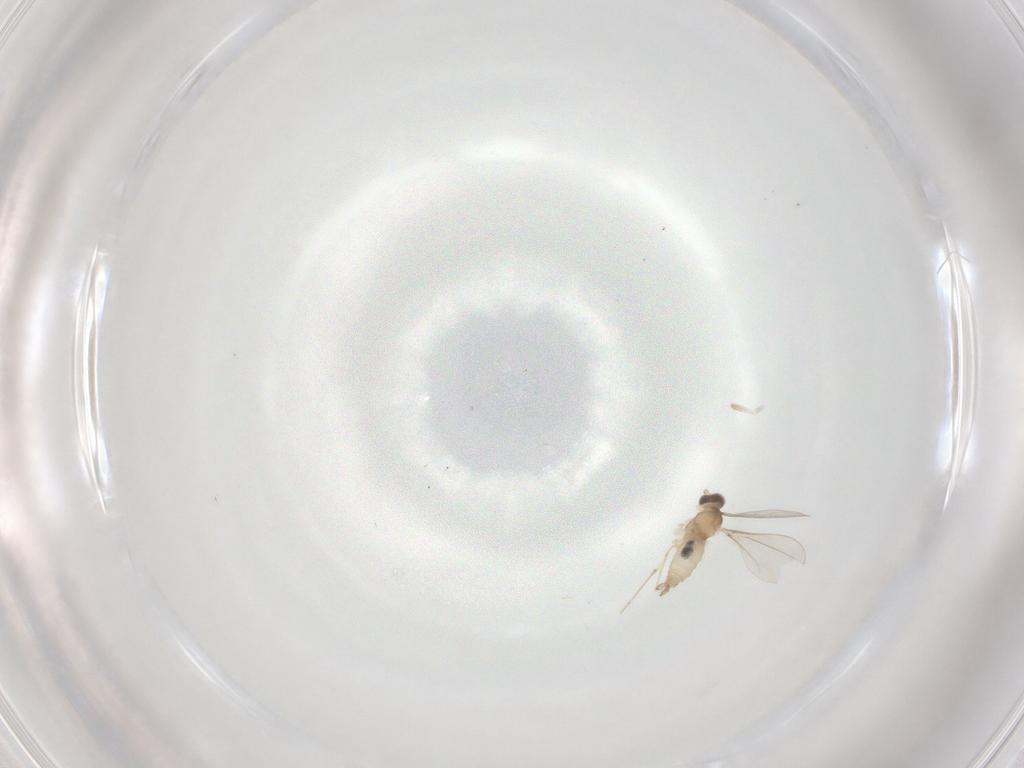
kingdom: Animalia
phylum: Arthropoda
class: Insecta
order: Diptera
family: Cecidomyiidae
